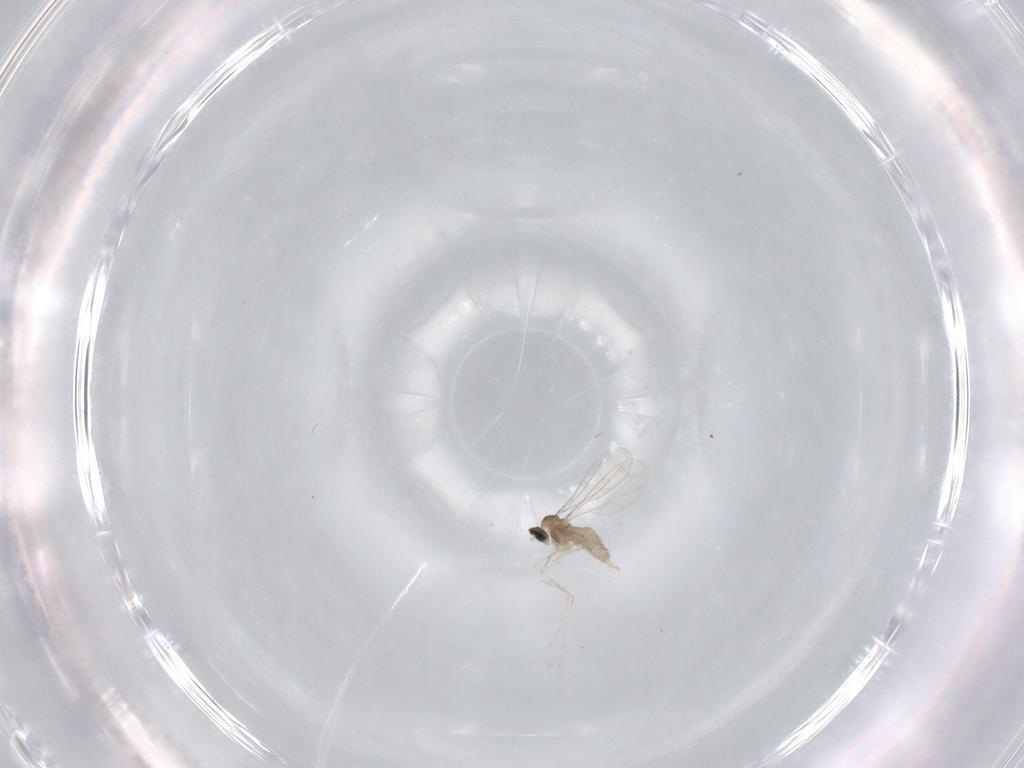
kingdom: Animalia
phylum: Arthropoda
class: Insecta
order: Diptera
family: Cecidomyiidae
